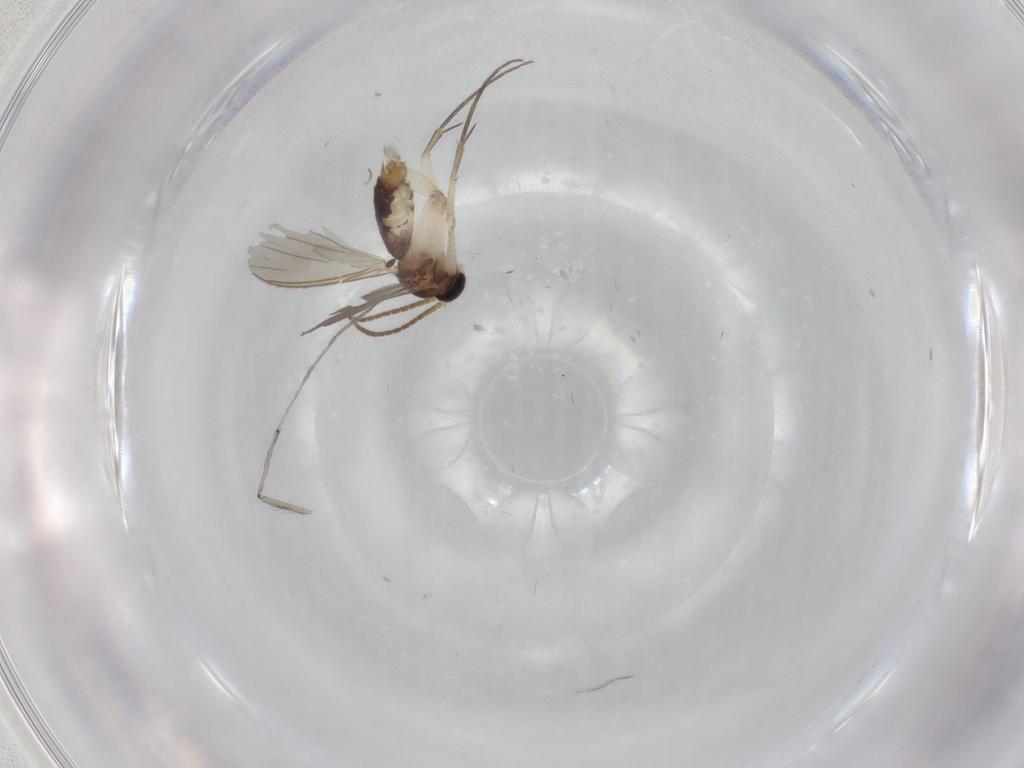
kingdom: Animalia
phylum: Arthropoda
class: Insecta
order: Diptera
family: Mycetophilidae
